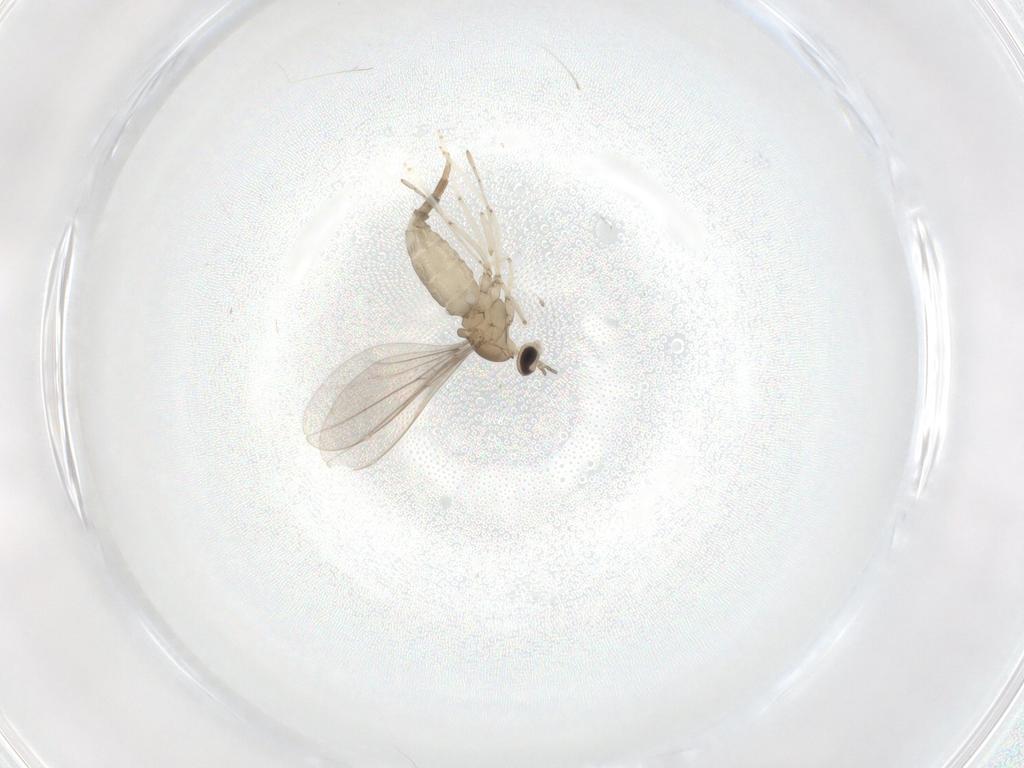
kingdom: Animalia
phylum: Arthropoda
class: Insecta
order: Diptera
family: Cecidomyiidae
